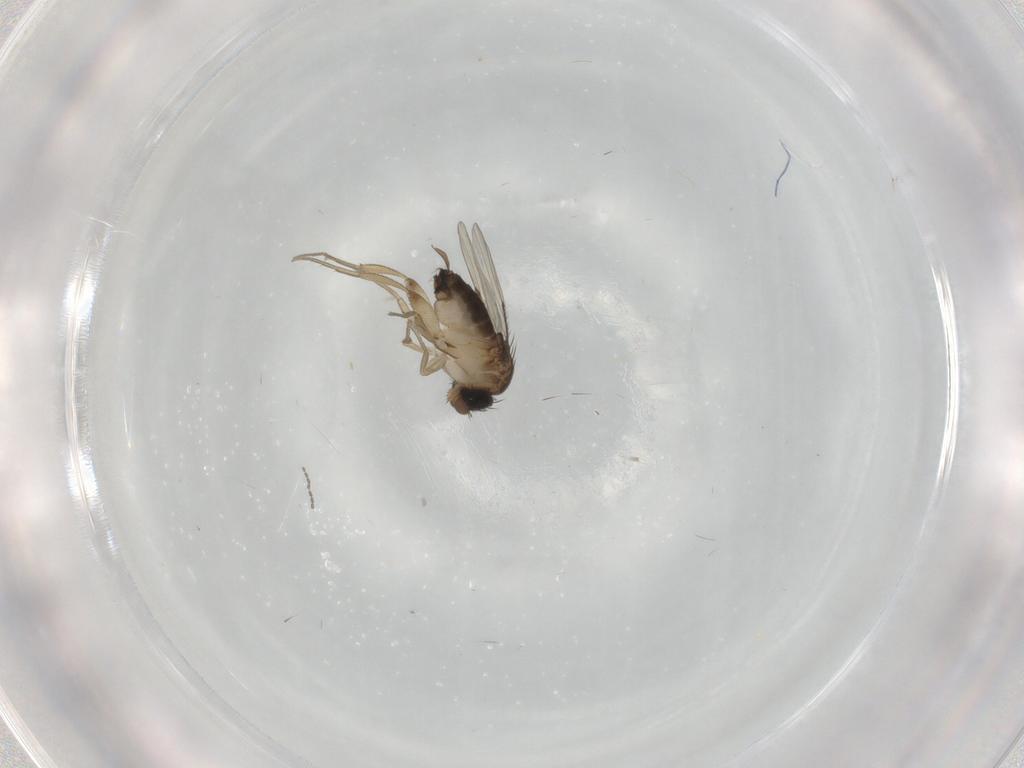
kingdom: Animalia
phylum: Arthropoda
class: Insecta
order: Diptera
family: Cecidomyiidae
